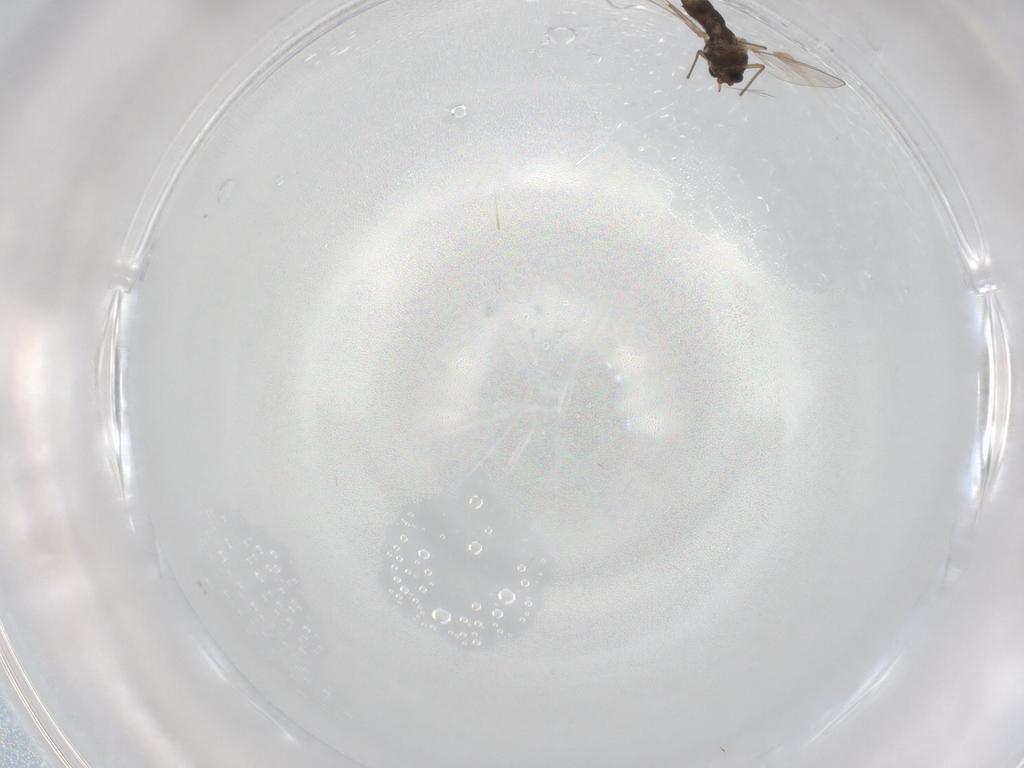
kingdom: Animalia
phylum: Arthropoda
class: Insecta
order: Diptera
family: Chironomidae
